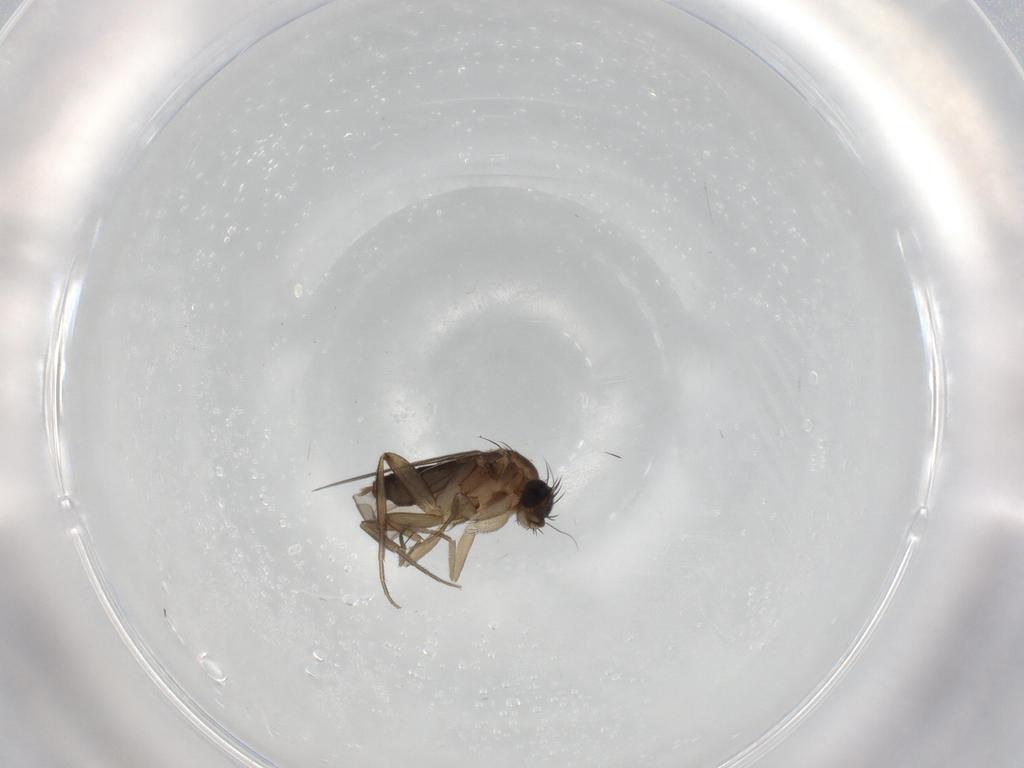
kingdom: Animalia
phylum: Arthropoda
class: Insecta
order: Diptera
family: Phoridae
